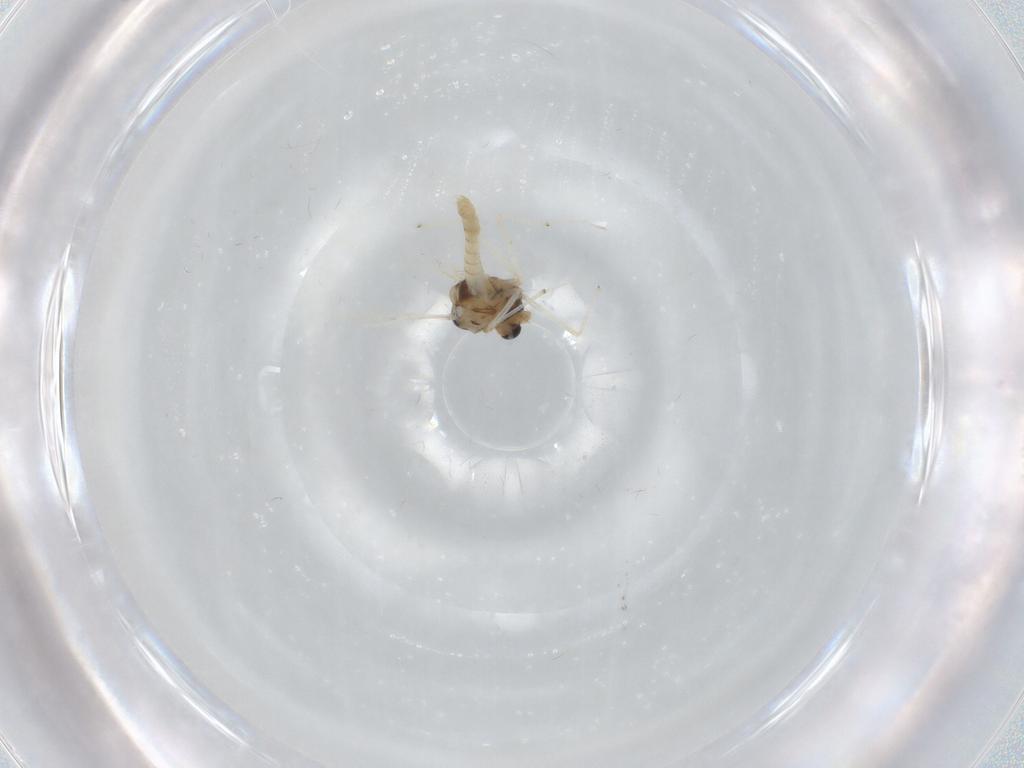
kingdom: Animalia
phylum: Arthropoda
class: Insecta
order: Diptera
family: Chironomidae
